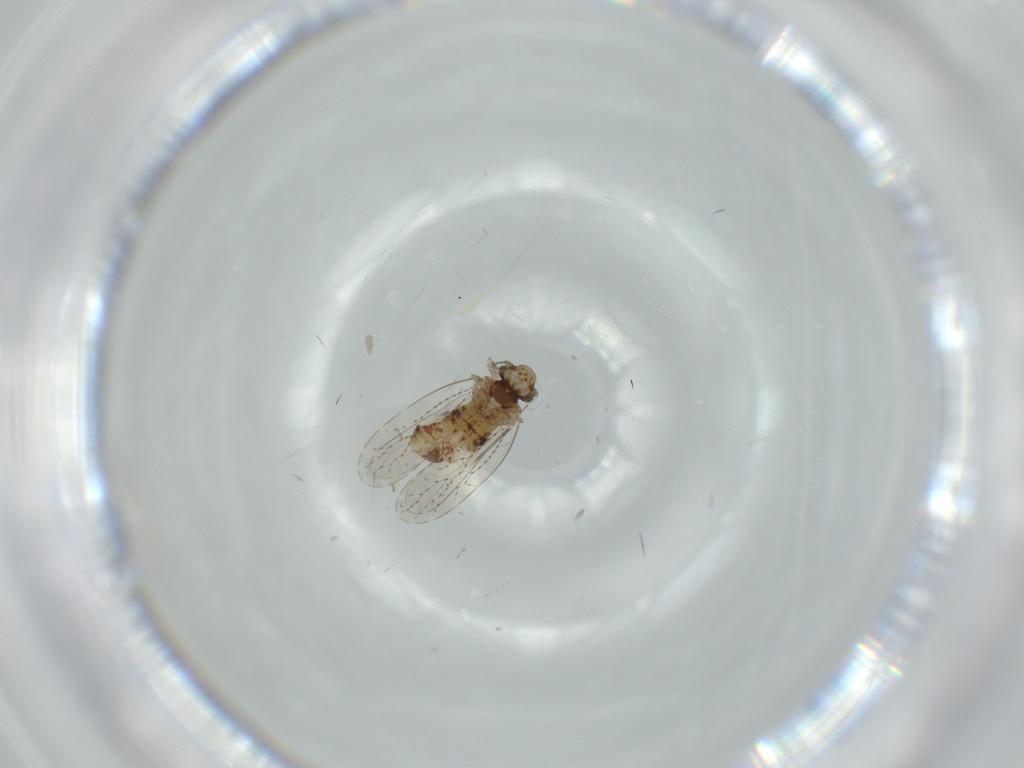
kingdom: Animalia
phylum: Arthropoda
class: Insecta
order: Psocodea
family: Musapsocidae
